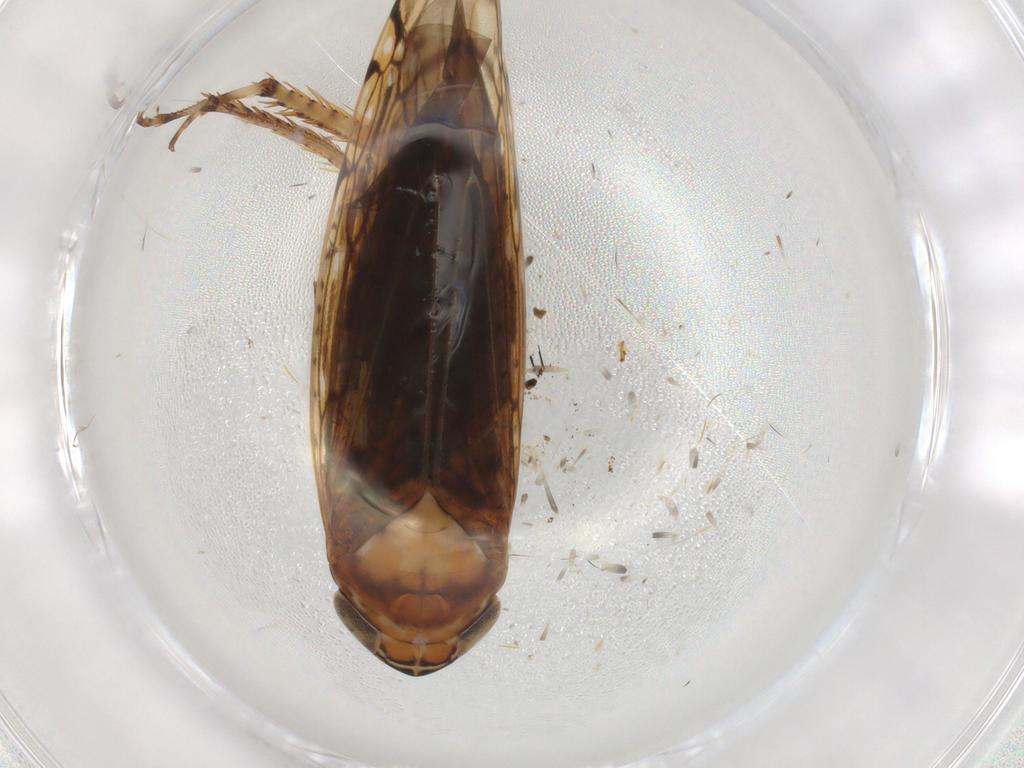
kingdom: Animalia
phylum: Arthropoda
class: Insecta
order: Hemiptera
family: Cicadellidae
